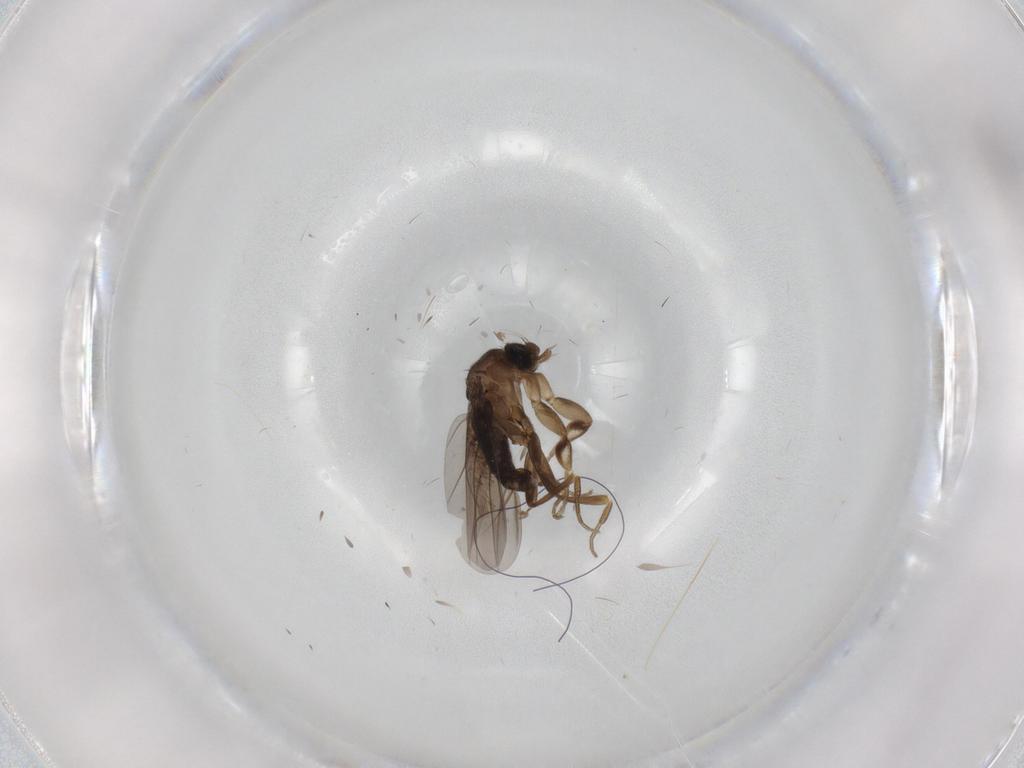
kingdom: Animalia
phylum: Arthropoda
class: Insecta
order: Diptera
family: Phoridae
